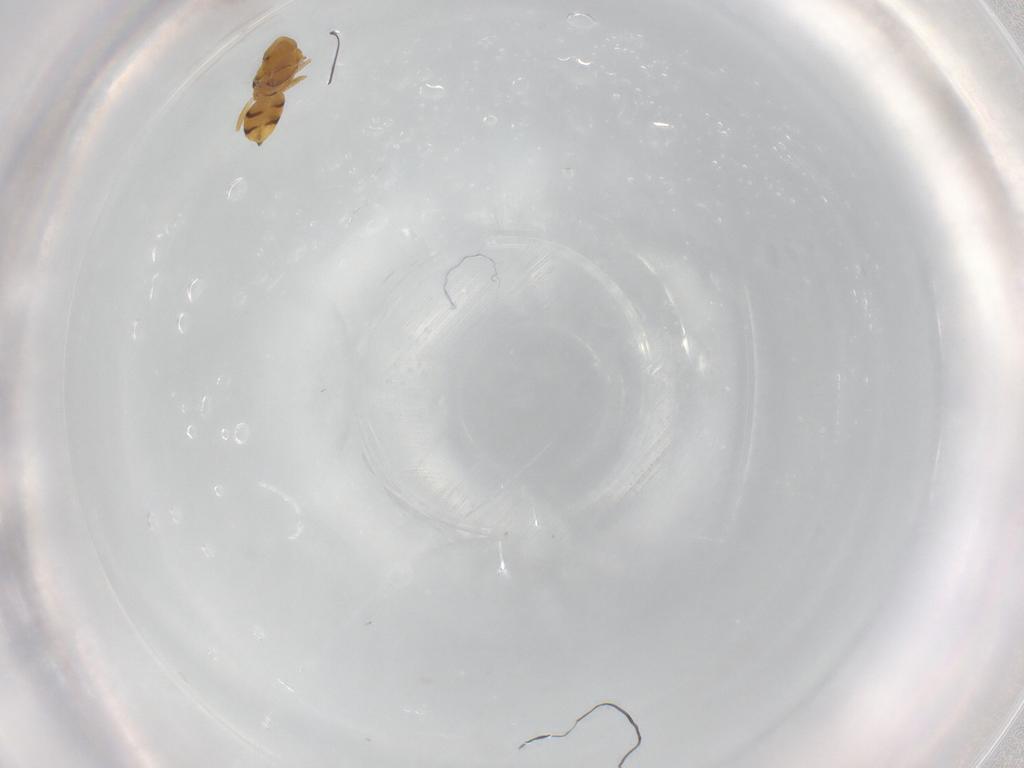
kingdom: Animalia
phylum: Arthropoda
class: Insecta
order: Hymenoptera
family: Eulophidae
